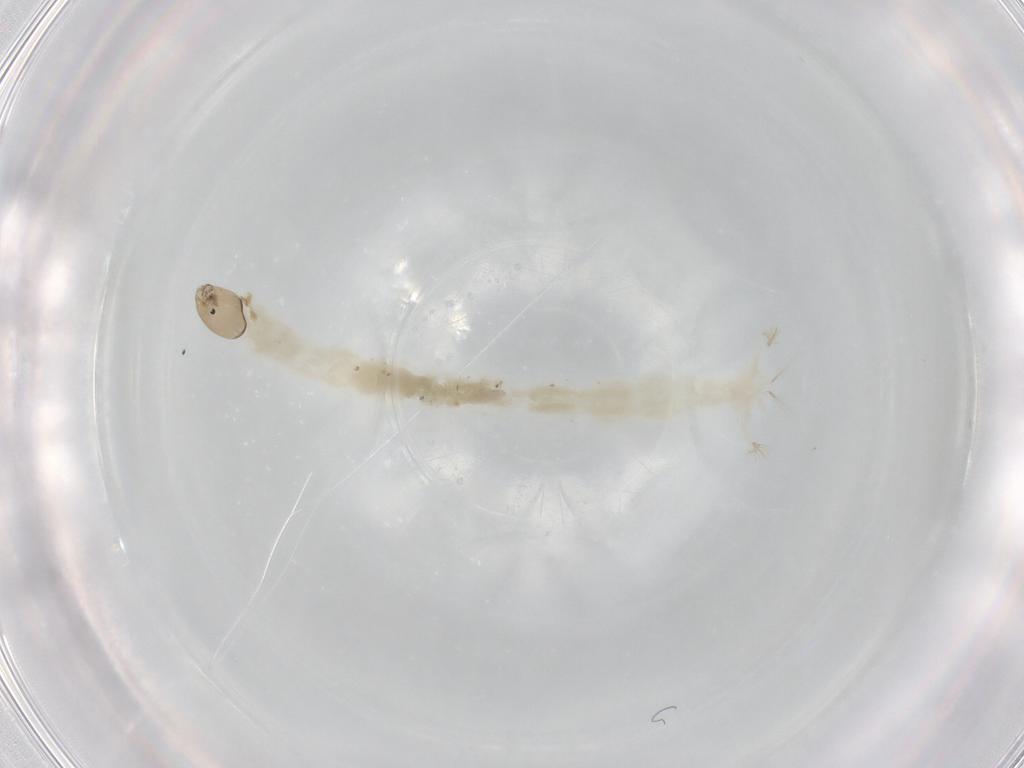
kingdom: Animalia
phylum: Arthropoda
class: Insecta
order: Diptera
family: Chironomidae
